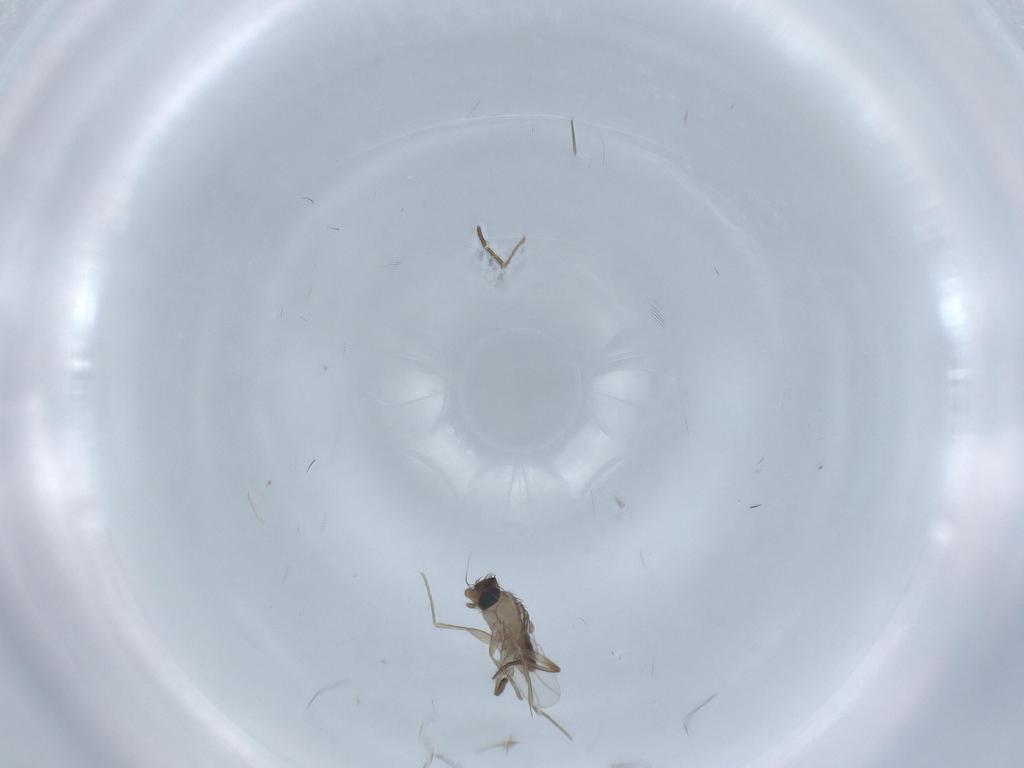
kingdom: Animalia
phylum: Arthropoda
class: Insecta
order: Diptera
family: Phoridae
